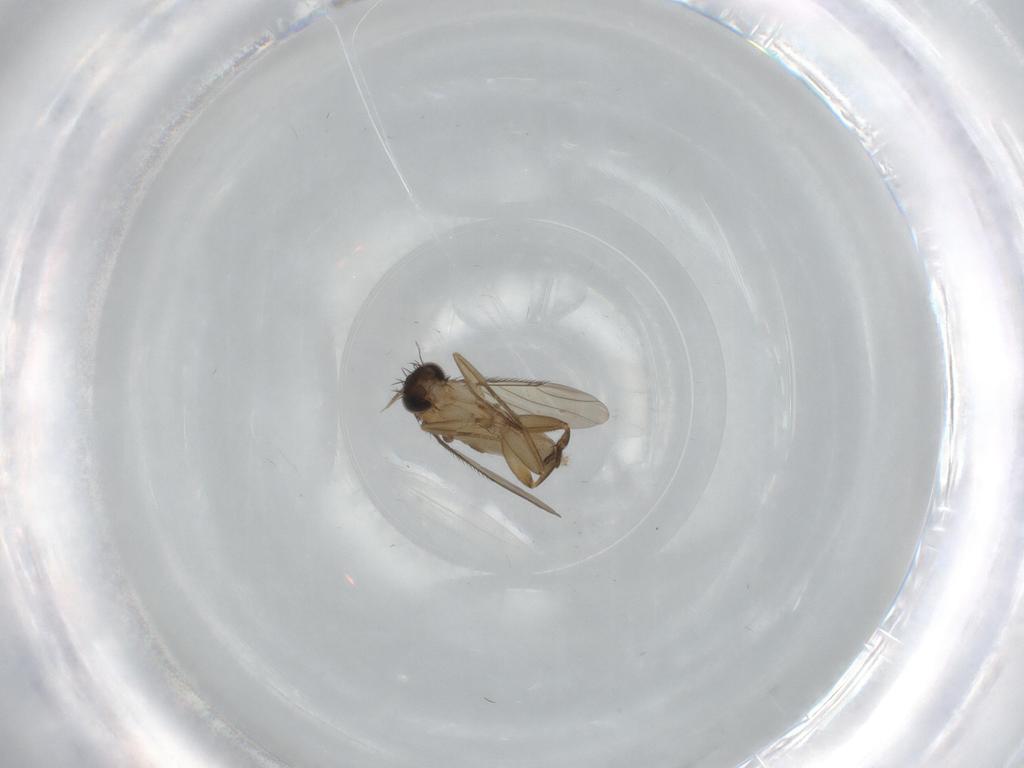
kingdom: Animalia
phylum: Arthropoda
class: Insecta
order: Diptera
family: Phoridae
